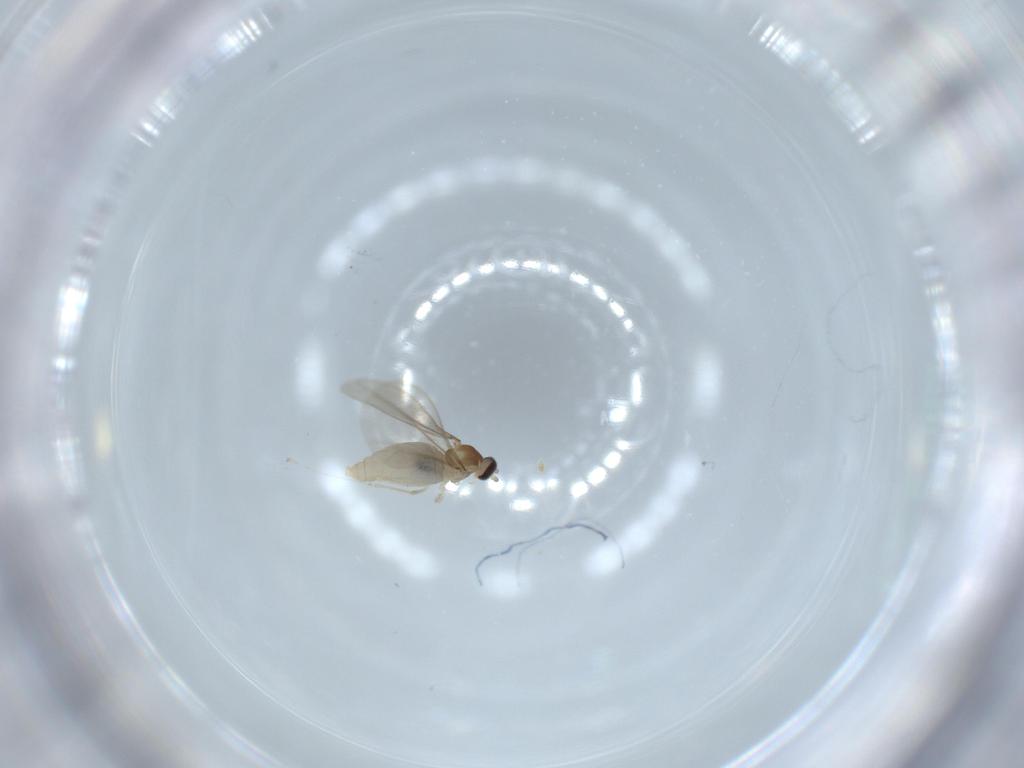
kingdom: Animalia
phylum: Arthropoda
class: Insecta
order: Diptera
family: Cecidomyiidae
